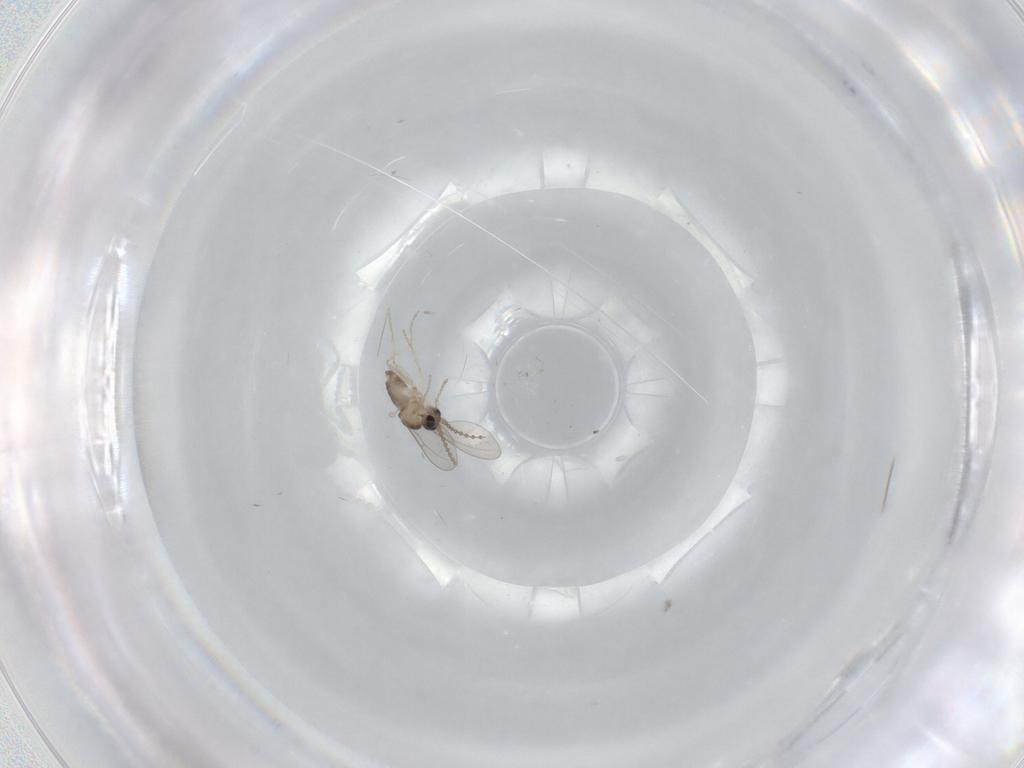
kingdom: Animalia
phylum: Arthropoda
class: Insecta
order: Diptera
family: Cecidomyiidae
